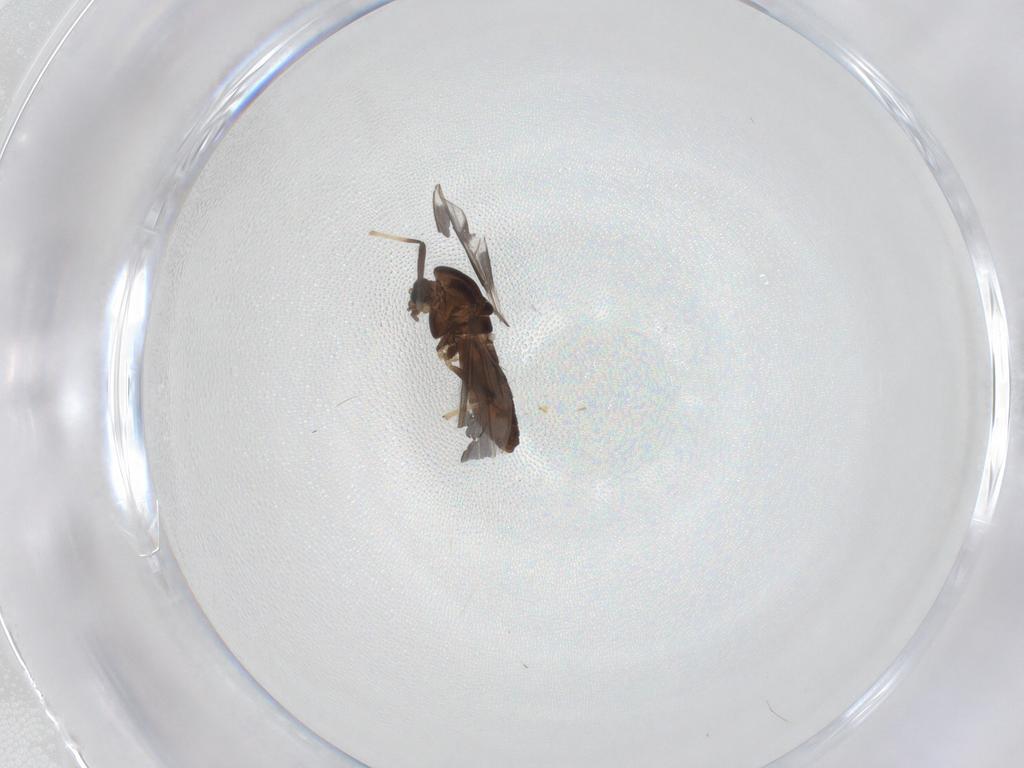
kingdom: Animalia
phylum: Arthropoda
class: Insecta
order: Diptera
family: Chironomidae
